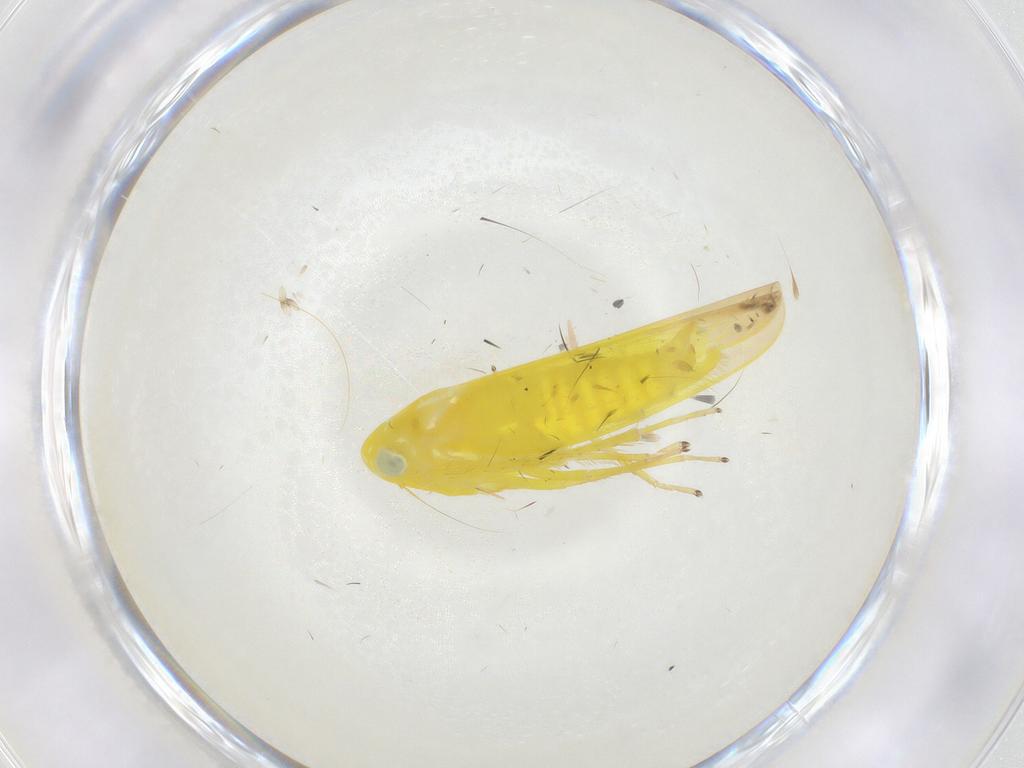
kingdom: Animalia
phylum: Arthropoda
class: Insecta
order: Hemiptera
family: Cicadellidae
